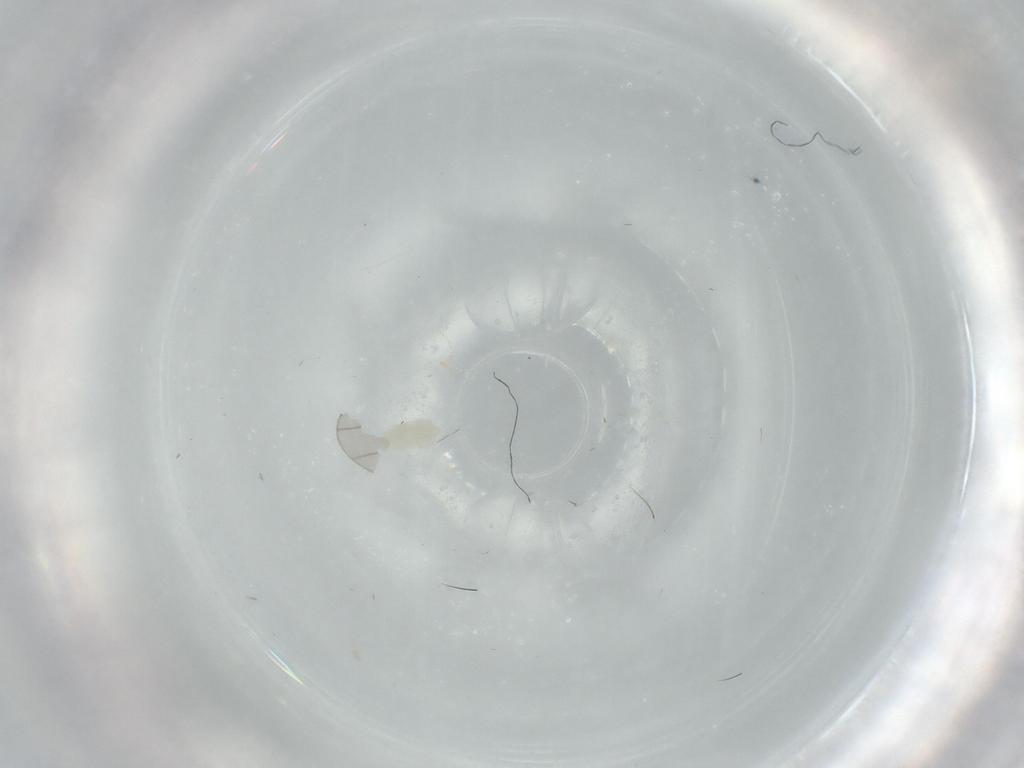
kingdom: Animalia
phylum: Arthropoda
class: Arachnida
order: Trombidiformes
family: Eupodidae
